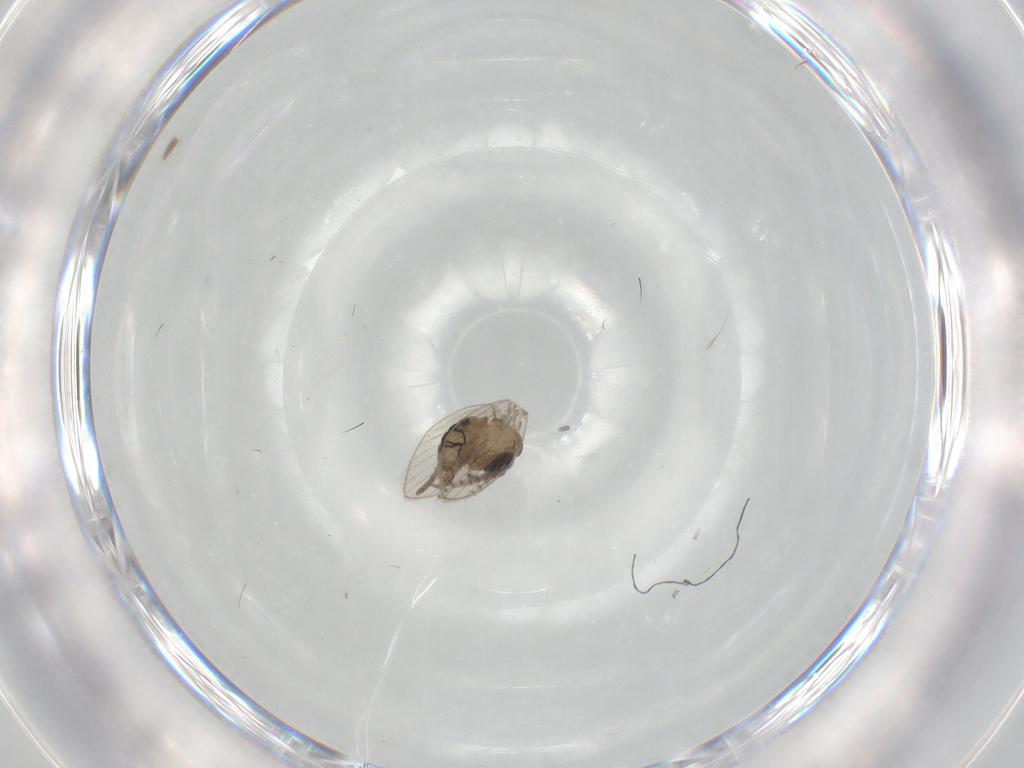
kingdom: Animalia
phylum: Arthropoda
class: Insecta
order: Diptera
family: Psychodidae
